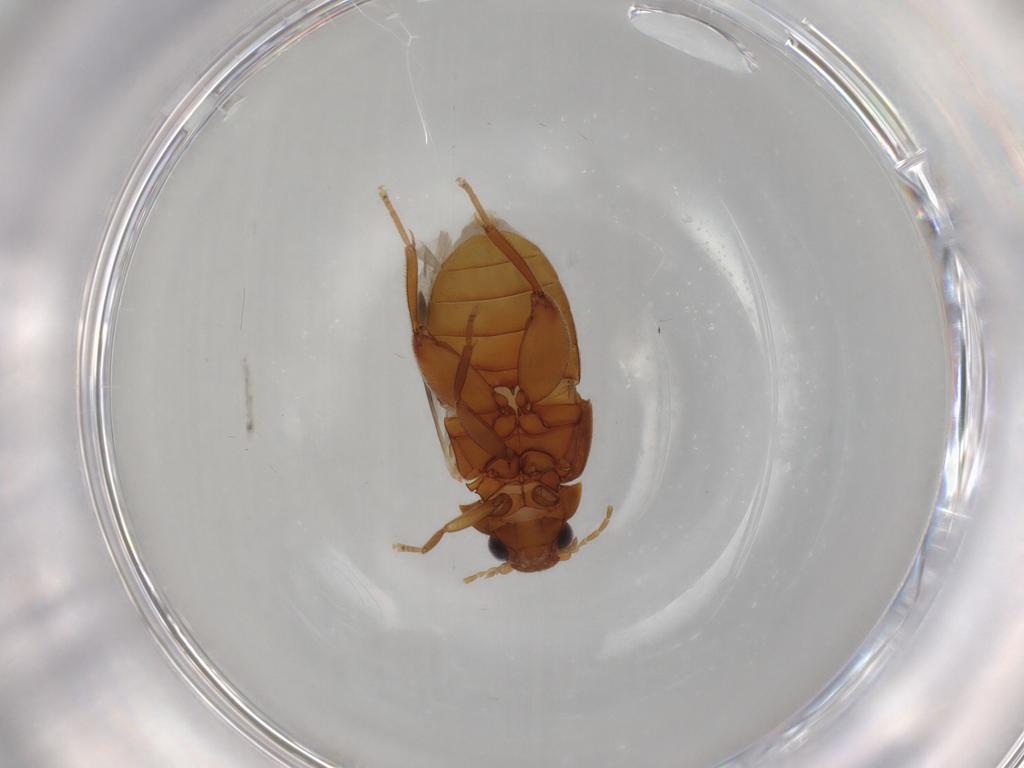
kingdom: Animalia
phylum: Arthropoda
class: Insecta
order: Coleoptera
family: Scirtidae
